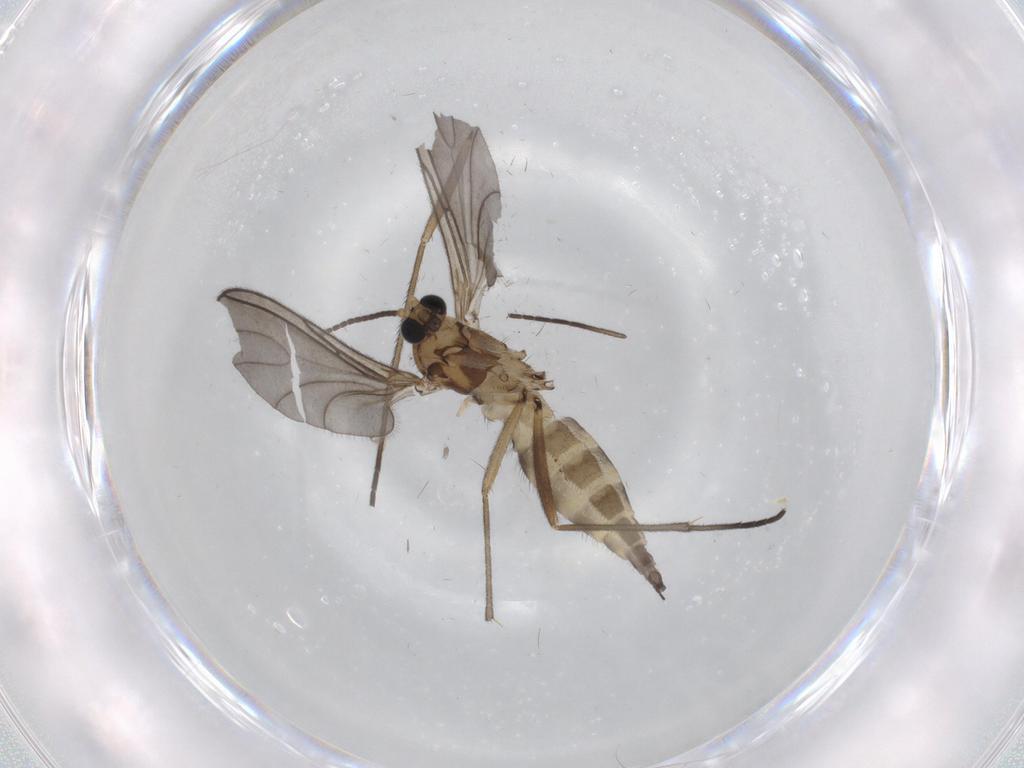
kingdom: Animalia
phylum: Arthropoda
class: Insecta
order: Diptera
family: Sciaridae
